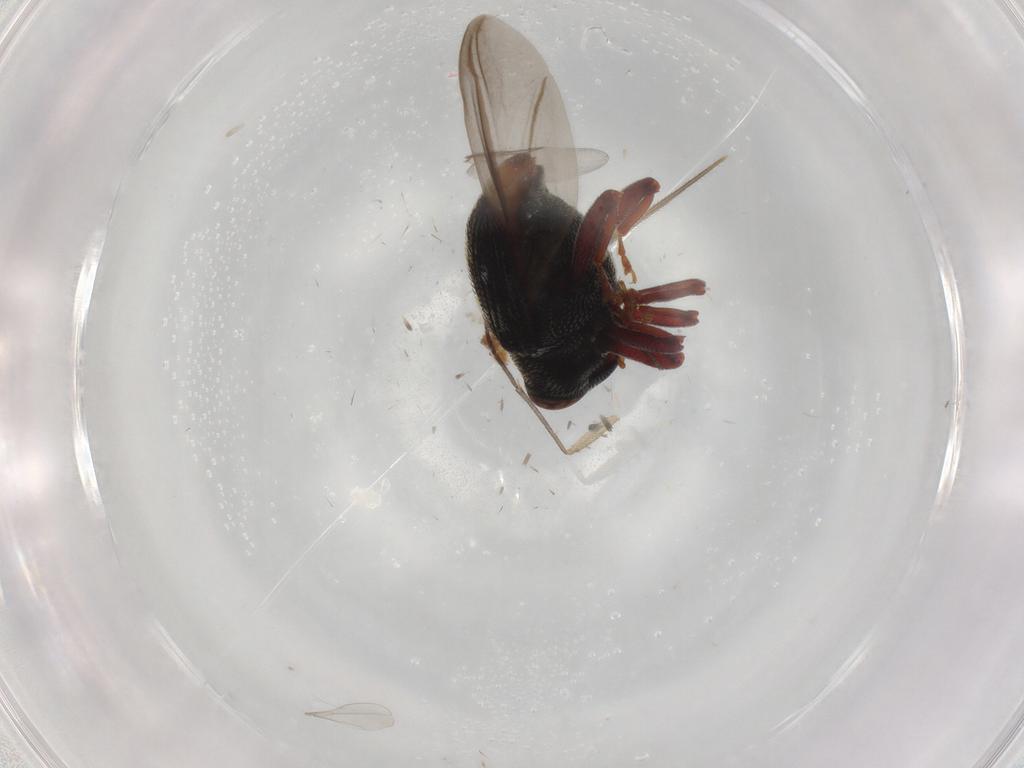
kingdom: Animalia
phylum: Arthropoda
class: Insecta
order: Coleoptera
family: Curculionidae
